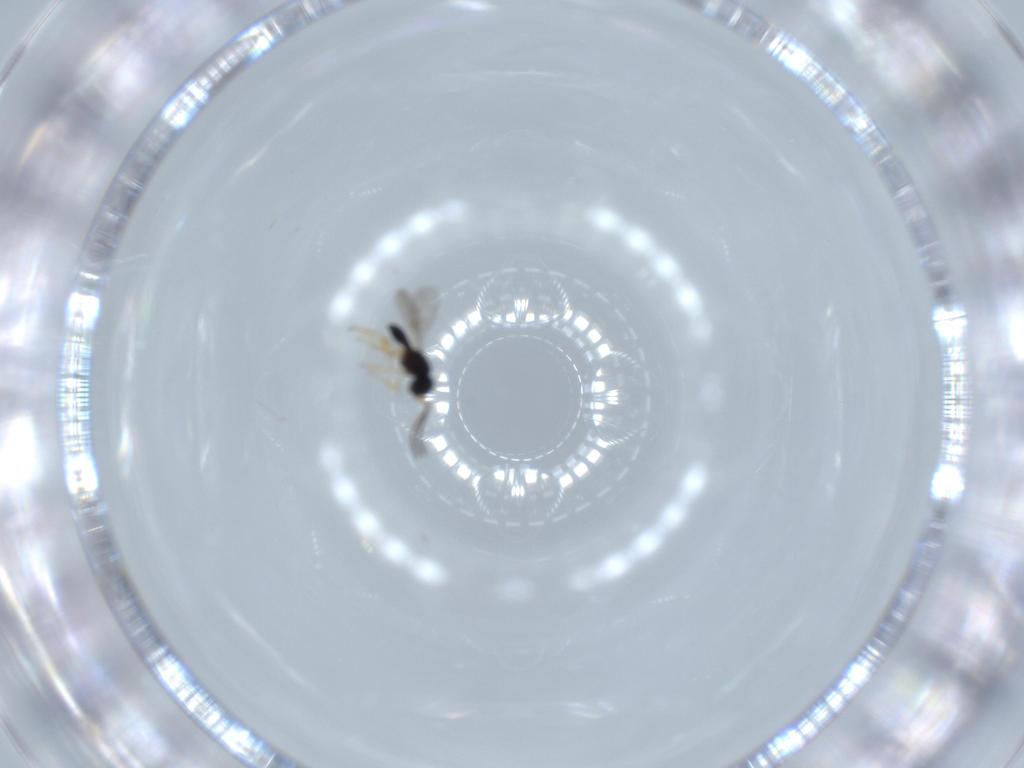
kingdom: Animalia
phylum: Arthropoda
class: Insecta
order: Hymenoptera
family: Scelionidae
